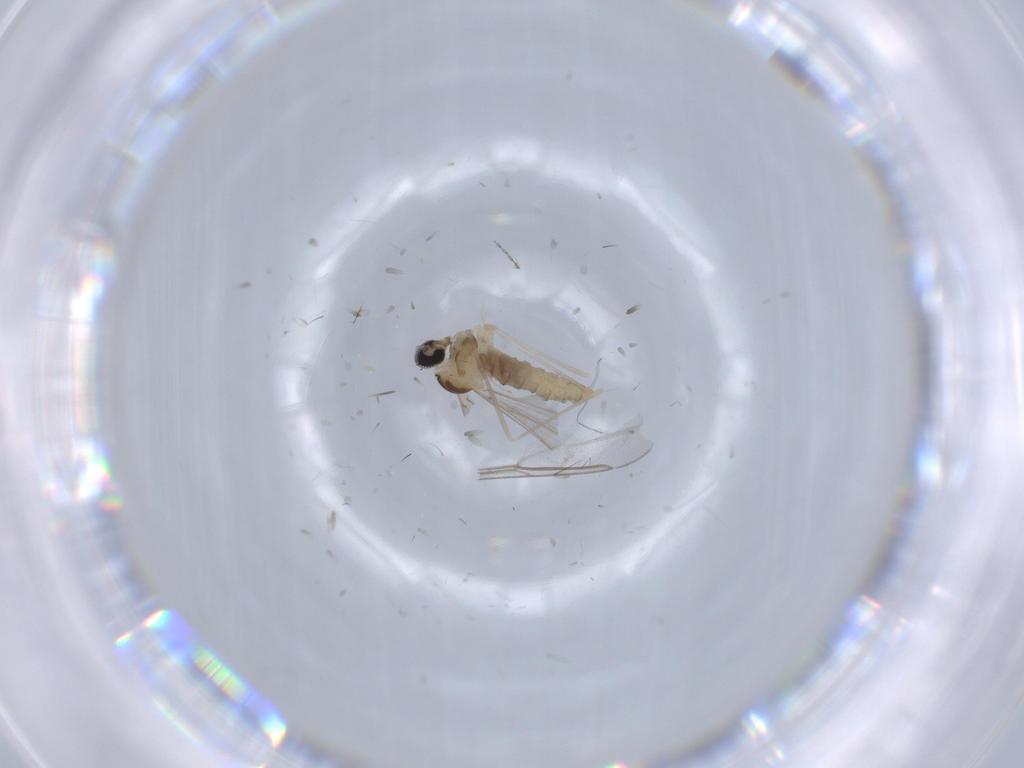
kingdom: Animalia
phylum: Arthropoda
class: Insecta
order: Diptera
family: Cecidomyiidae
